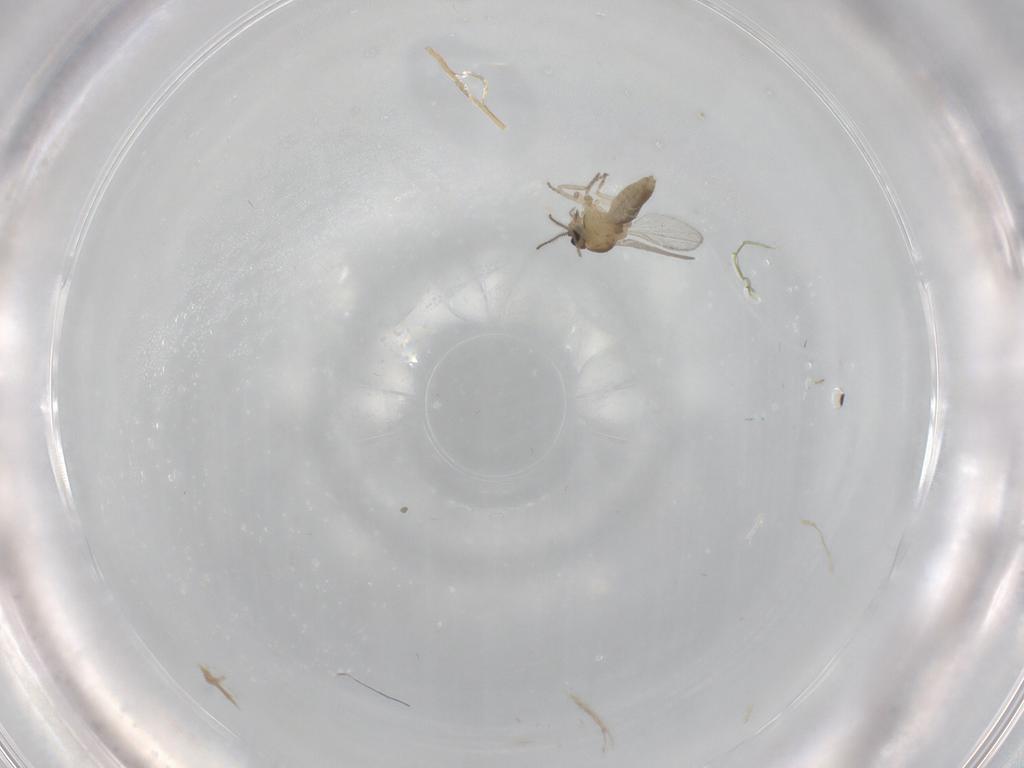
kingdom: Animalia
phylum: Arthropoda
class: Insecta
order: Diptera
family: Ceratopogonidae
